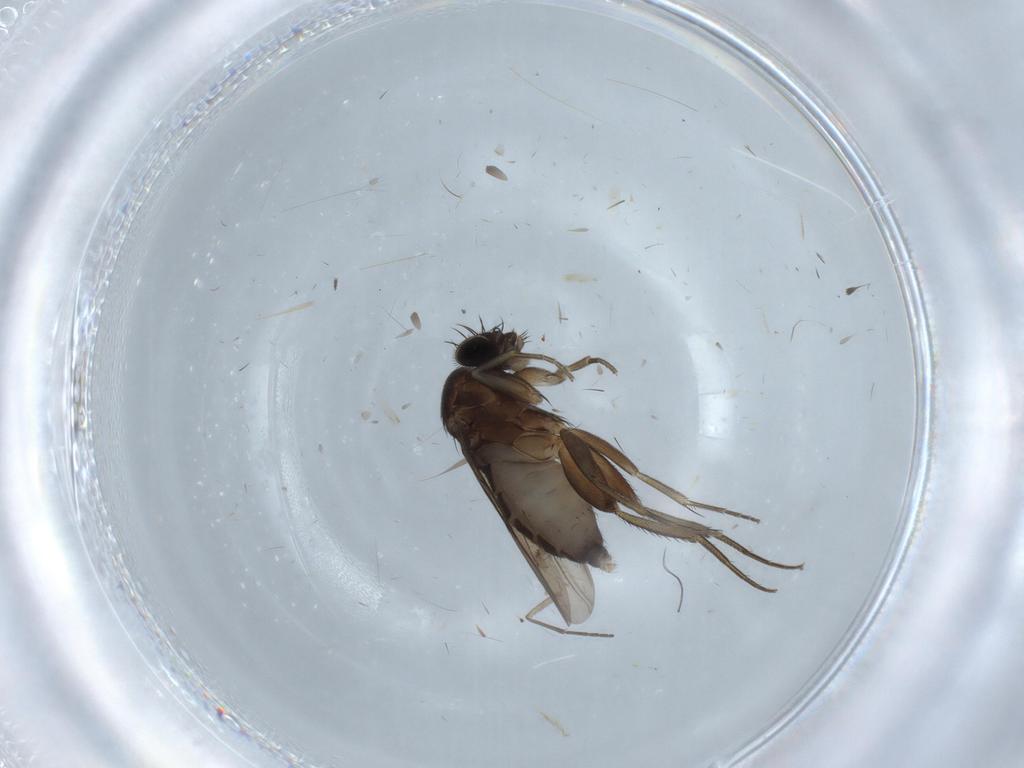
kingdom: Animalia
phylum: Arthropoda
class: Insecta
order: Diptera
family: Phoridae
